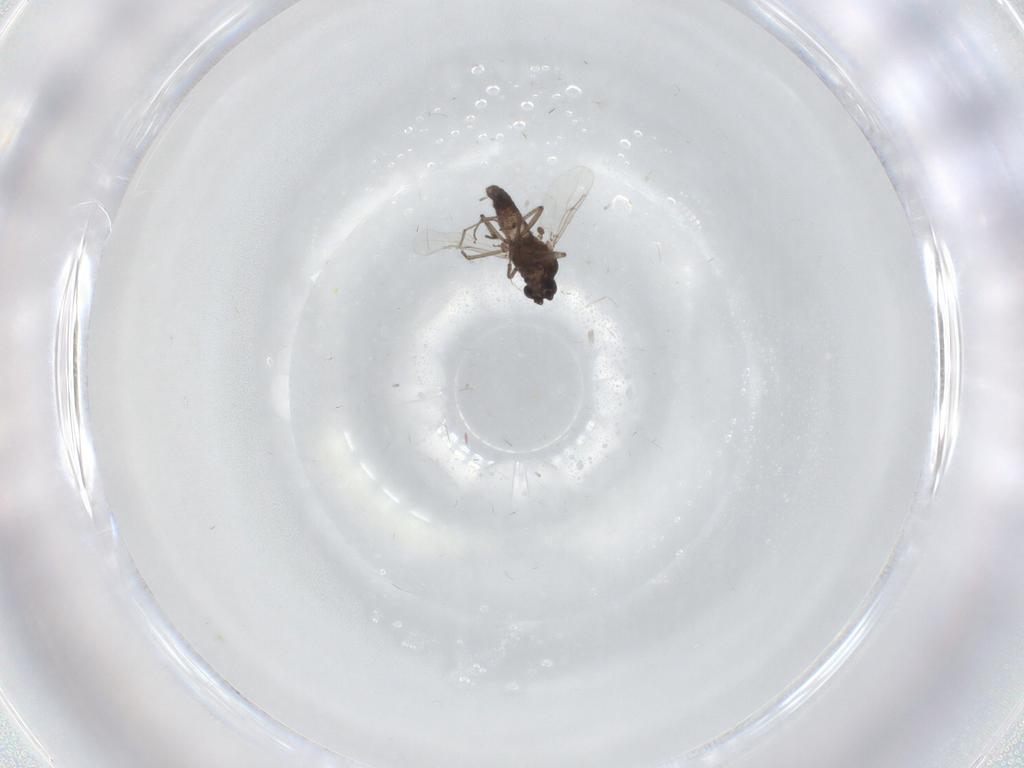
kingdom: Animalia
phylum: Arthropoda
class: Insecta
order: Diptera
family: Cecidomyiidae
